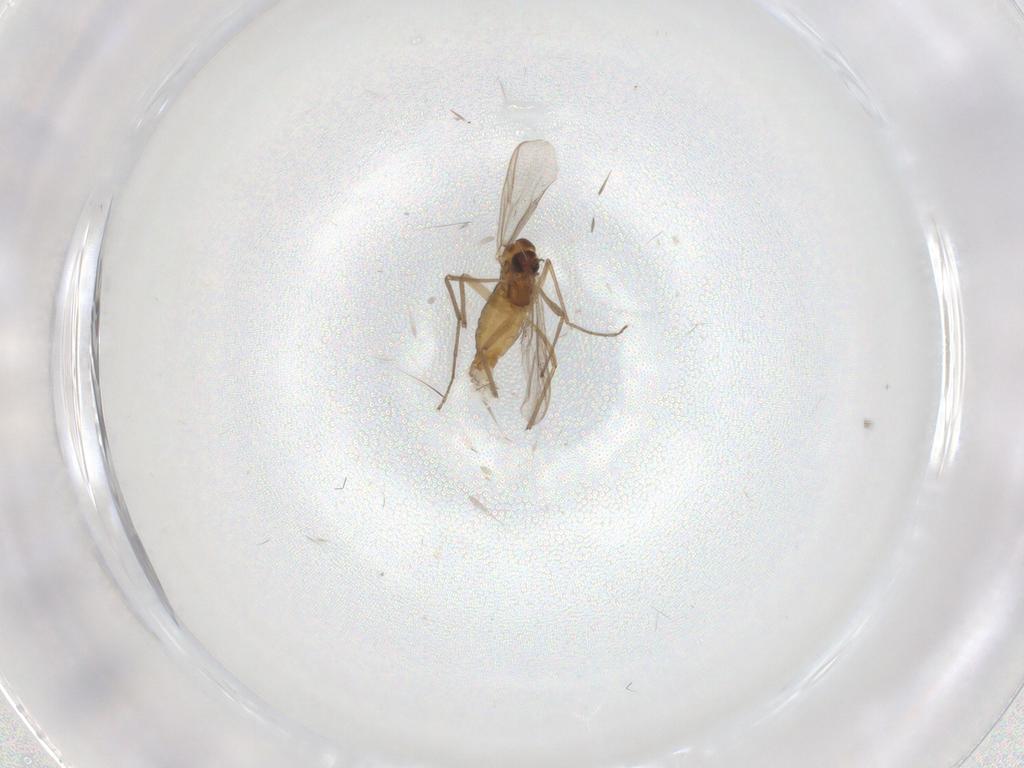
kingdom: Animalia
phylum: Arthropoda
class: Insecta
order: Diptera
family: Chironomidae
